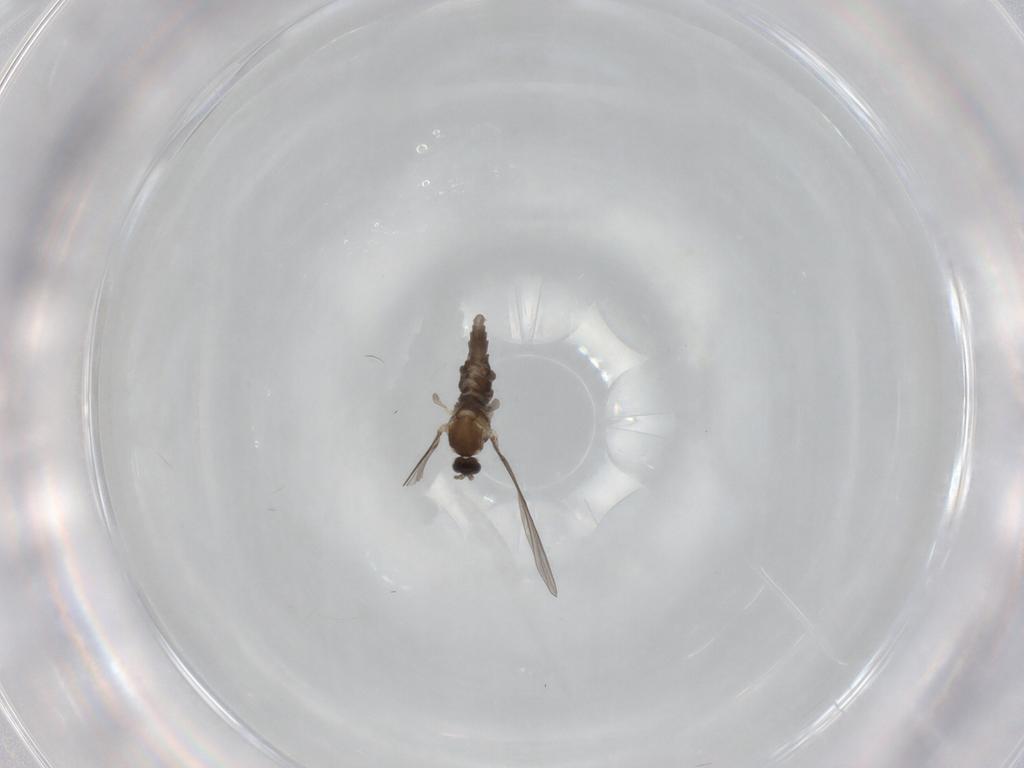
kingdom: Animalia
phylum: Arthropoda
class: Insecta
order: Diptera
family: Cecidomyiidae
